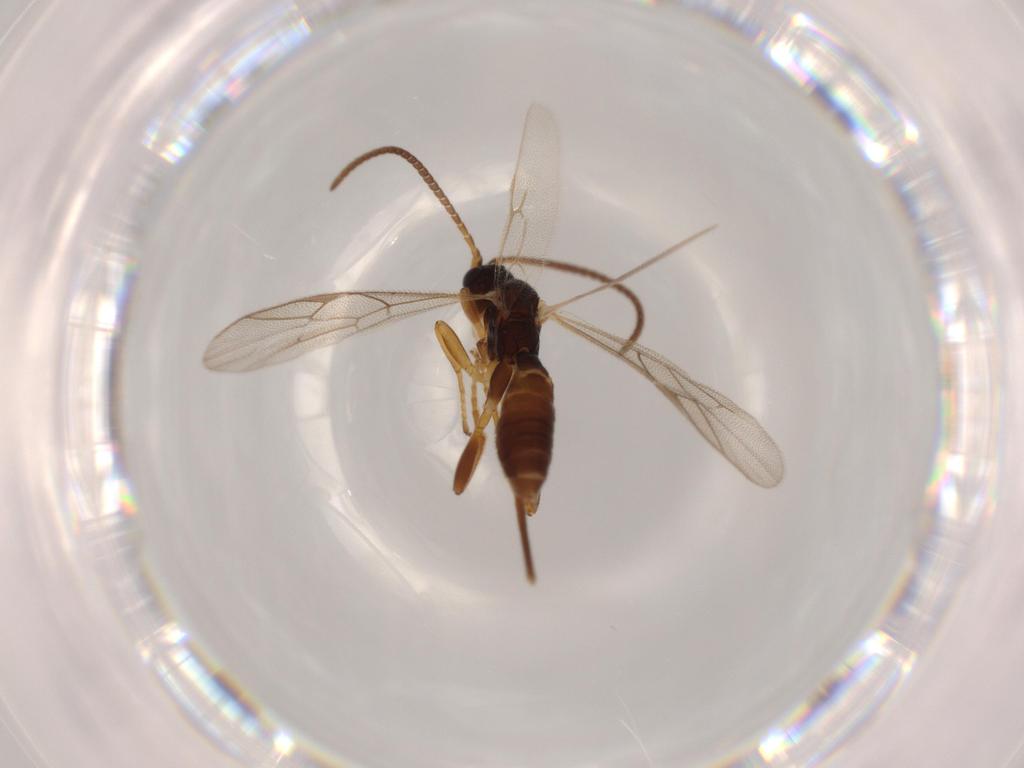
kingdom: Animalia
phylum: Arthropoda
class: Insecta
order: Hymenoptera
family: Ichneumonidae
